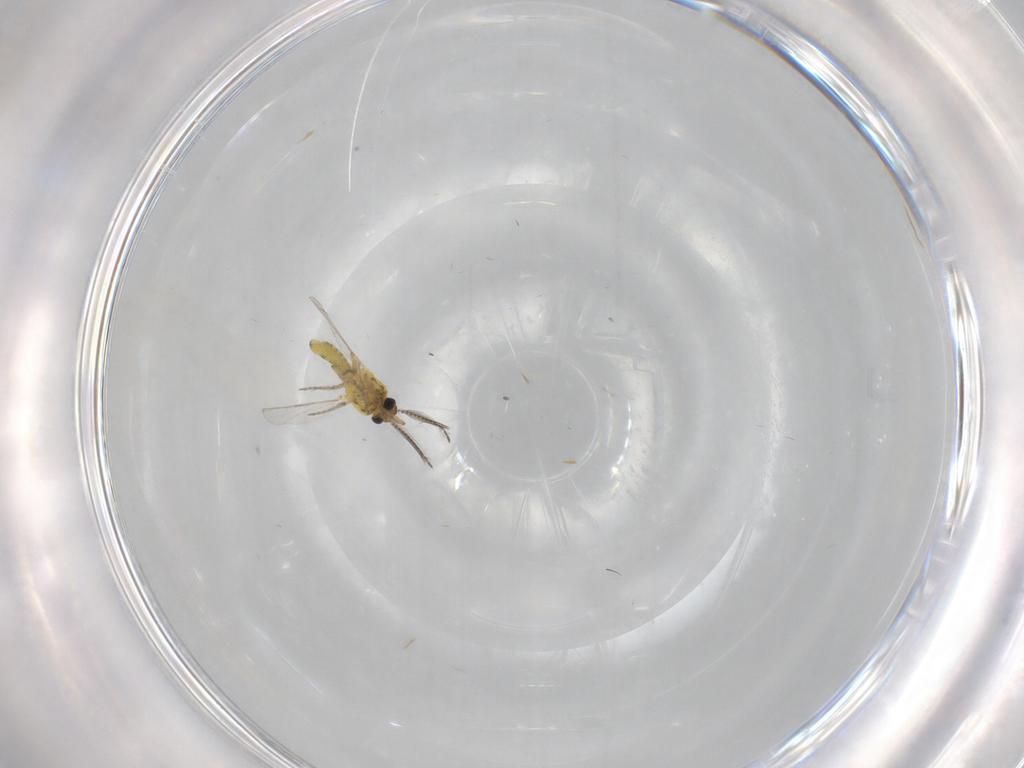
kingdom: Animalia
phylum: Arthropoda
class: Insecta
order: Diptera
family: Ceratopogonidae
